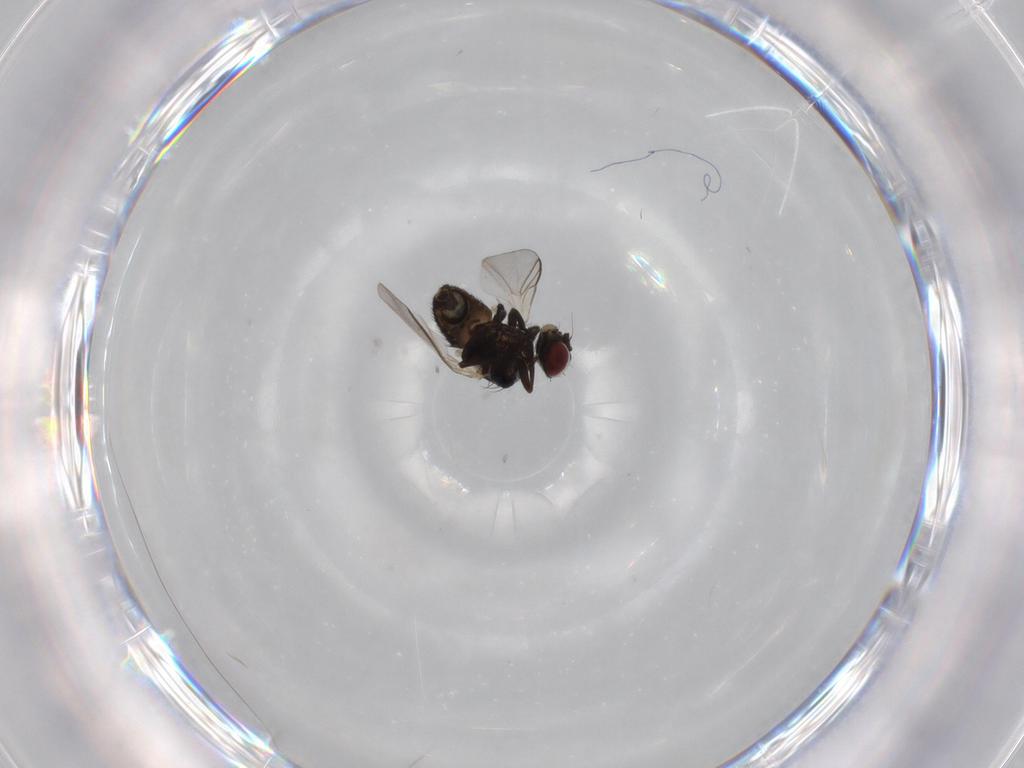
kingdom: Animalia
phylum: Arthropoda
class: Insecta
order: Diptera
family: Agromyzidae
